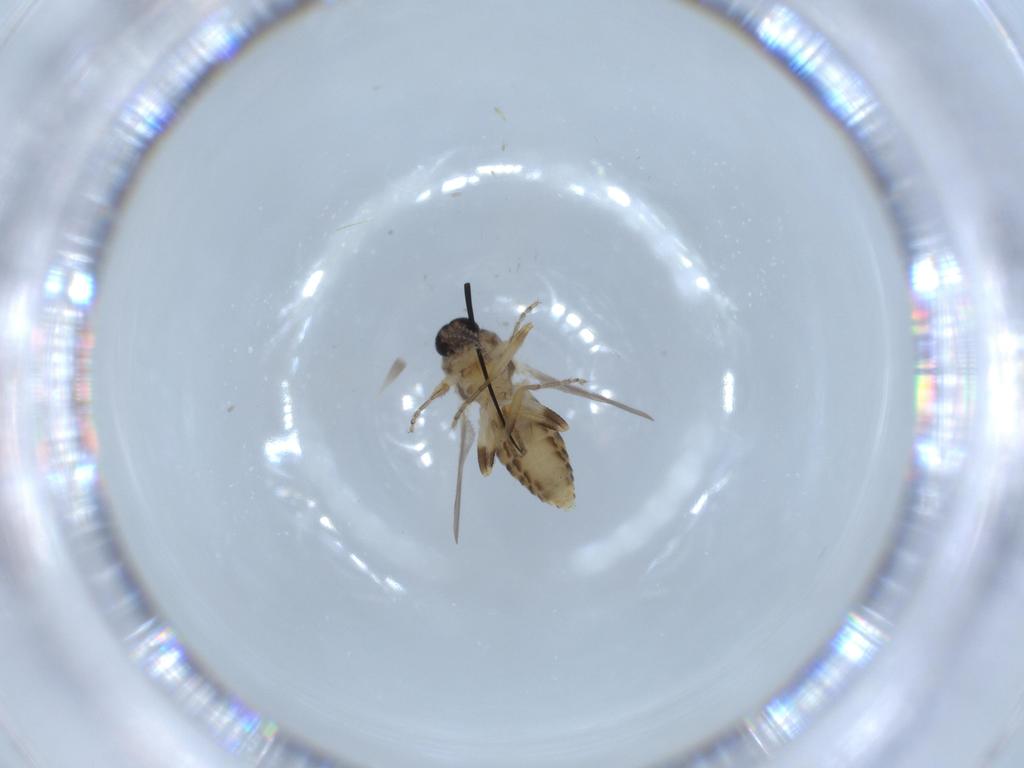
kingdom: Animalia
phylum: Arthropoda
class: Insecta
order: Diptera
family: Ceratopogonidae
